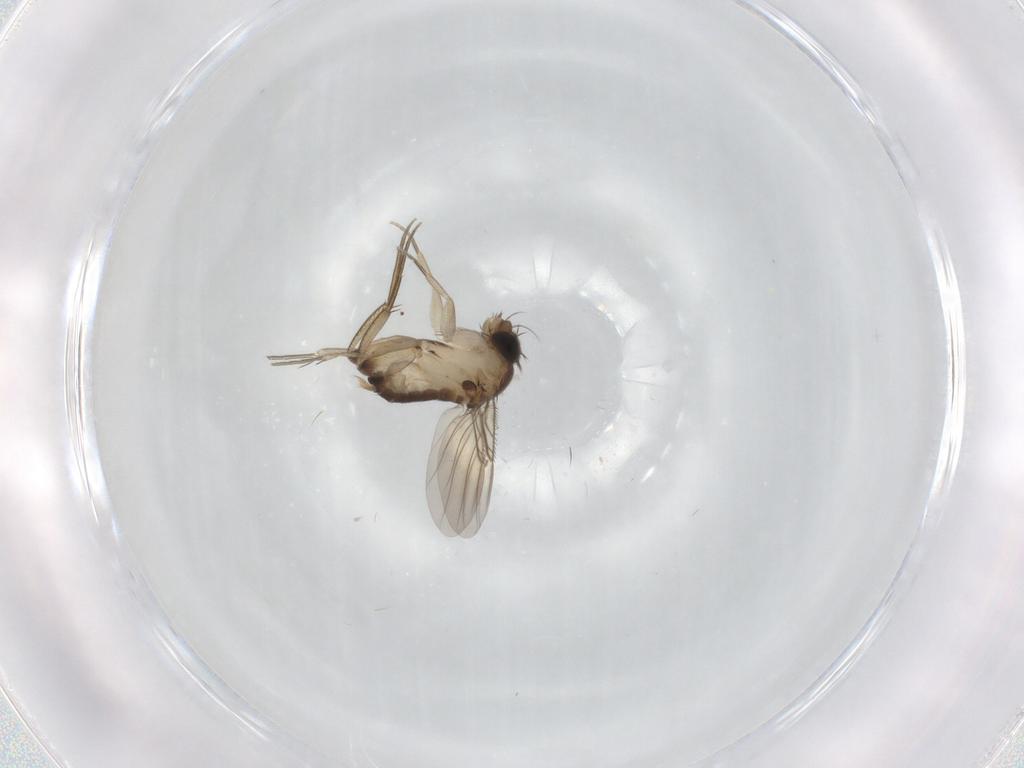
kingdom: Animalia
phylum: Arthropoda
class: Insecta
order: Diptera
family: Phoridae
